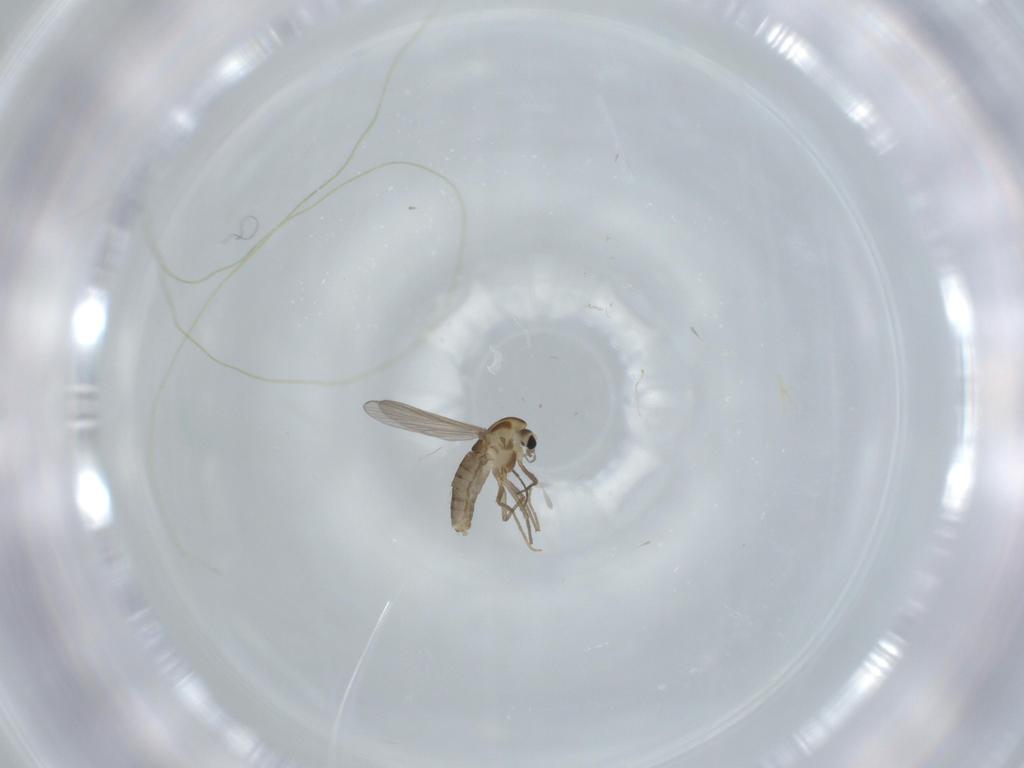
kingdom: Animalia
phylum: Arthropoda
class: Insecta
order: Diptera
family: Chironomidae
